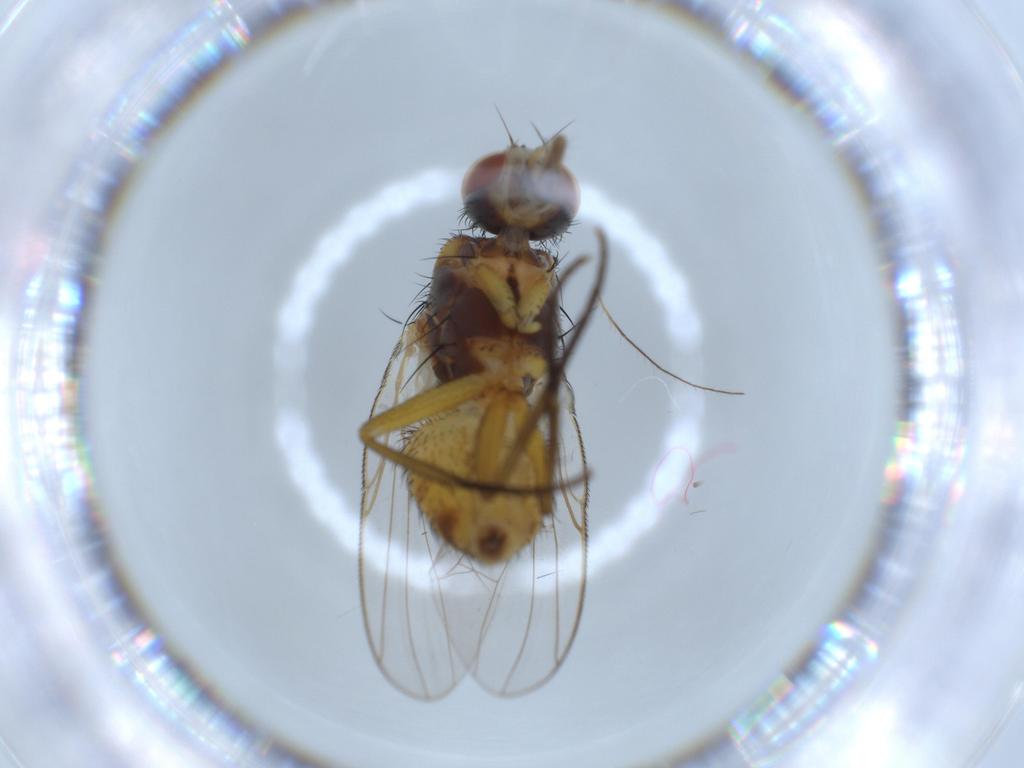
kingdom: Animalia
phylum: Arthropoda
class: Insecta
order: Diptera
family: Muscidae
